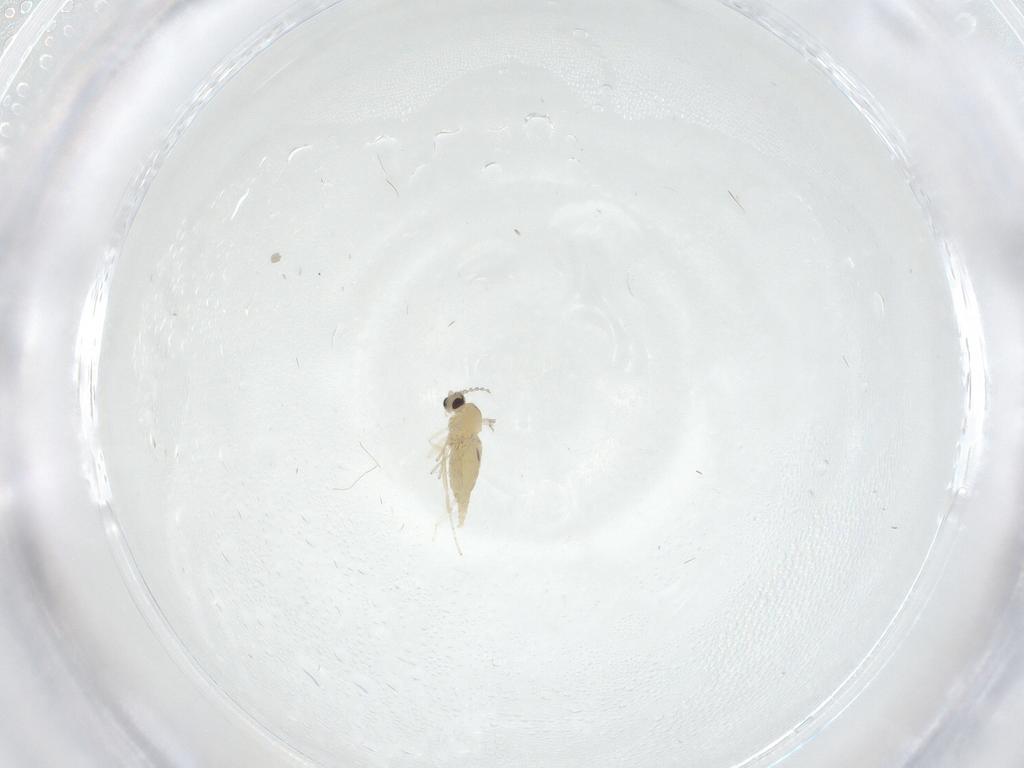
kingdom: Animalia
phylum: Arthropoda
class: Insecta
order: Diptera
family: Cecidomyiidae
